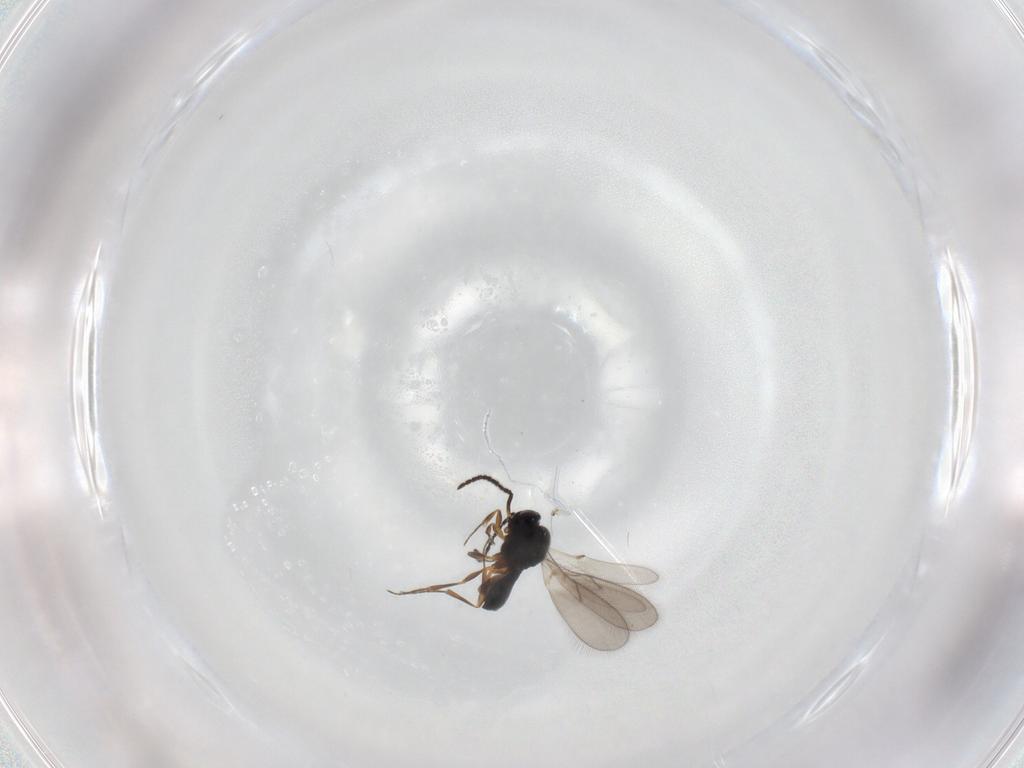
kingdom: Animalia
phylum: Arthropoda
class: Insecta
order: Hymenoptera
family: Scelionidae
